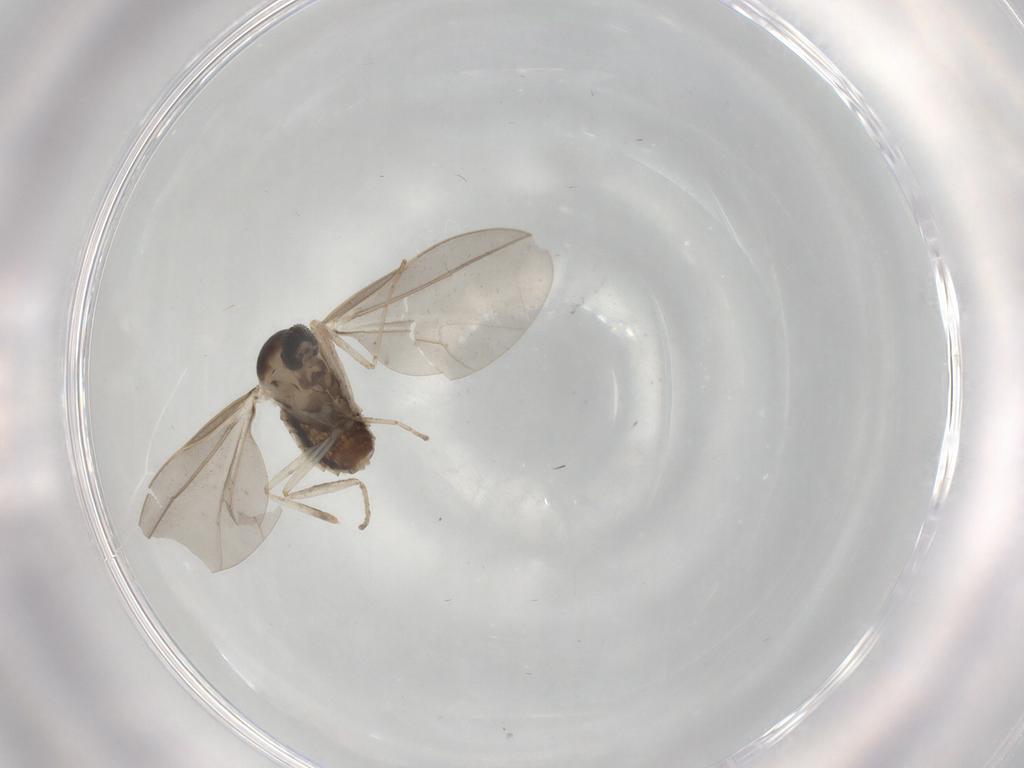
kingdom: Animalia
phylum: Arthropoda
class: Insecta
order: Diptera
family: Cecidomyiidae
